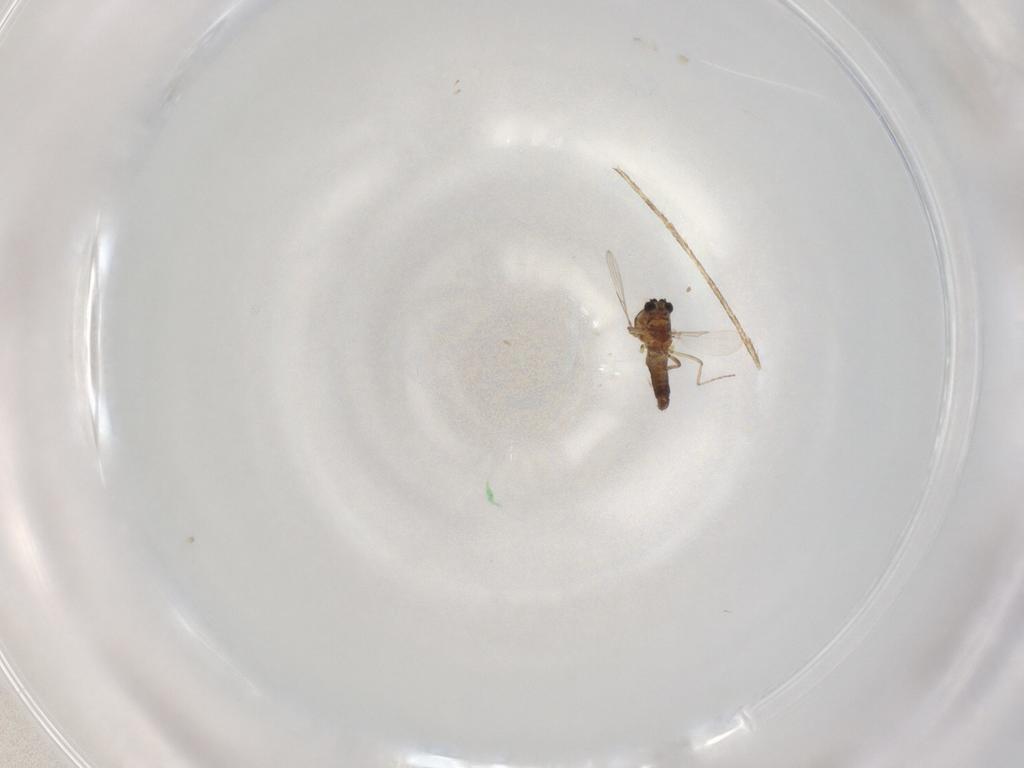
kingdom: Animalia
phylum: Arthropoda
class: Insecta
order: Diptera
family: Ceratopogonidae
